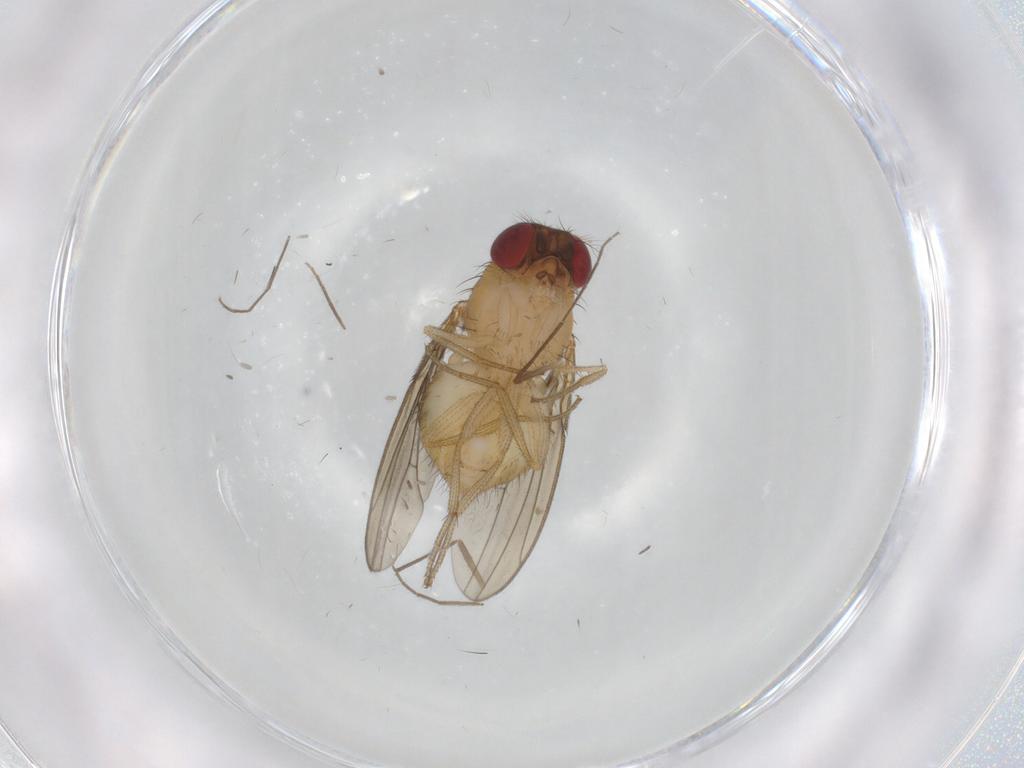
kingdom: Animalia
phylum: Arthropoda
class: Insecta
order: Diptera
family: Drosophilidae
